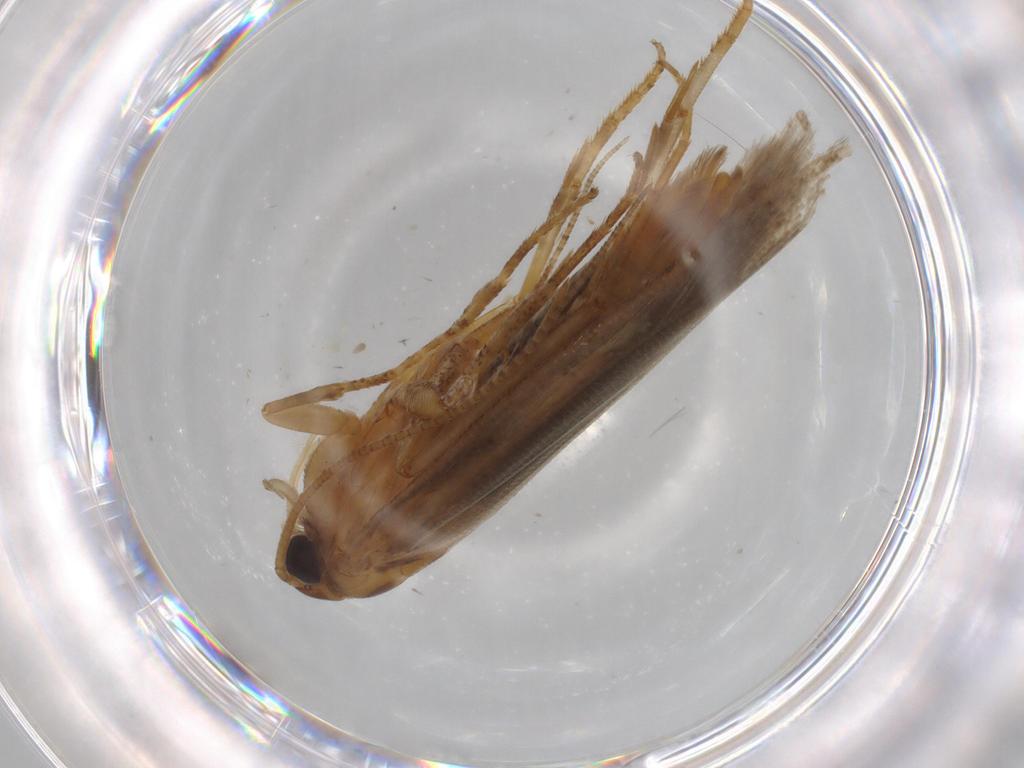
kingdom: Animalia
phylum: Arthropoda
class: Insecta
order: Lepidoptera
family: Gelechiidae
